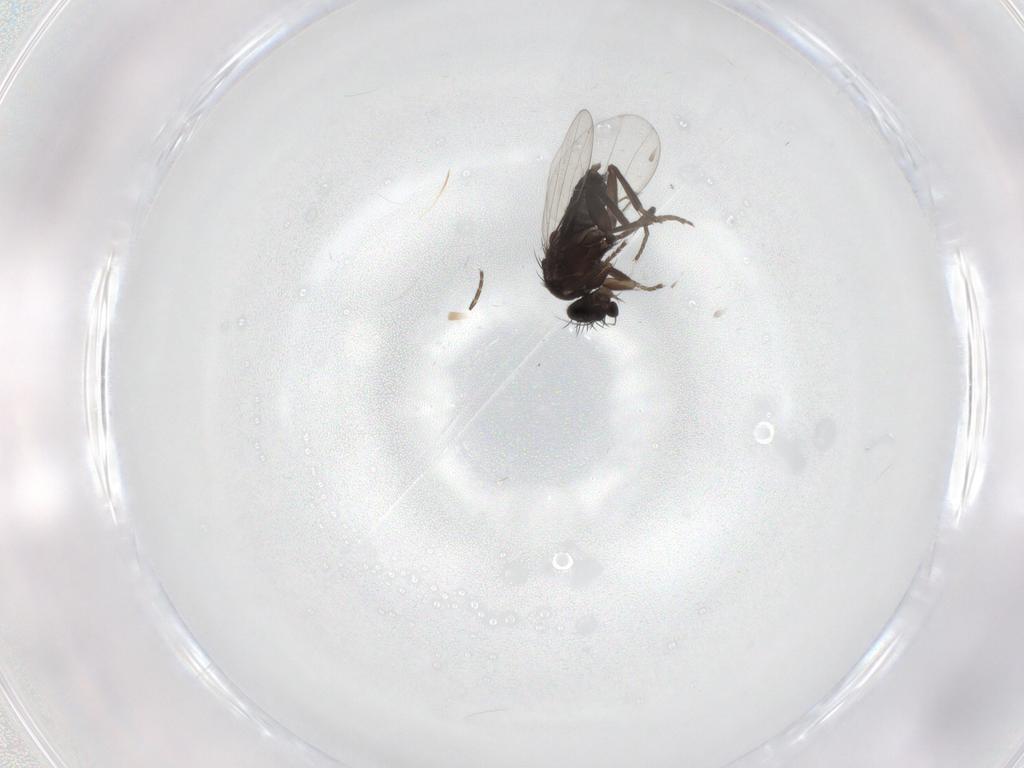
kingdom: Animalia
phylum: Arthropoda
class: Insecta
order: Diptera
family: Phoridae
